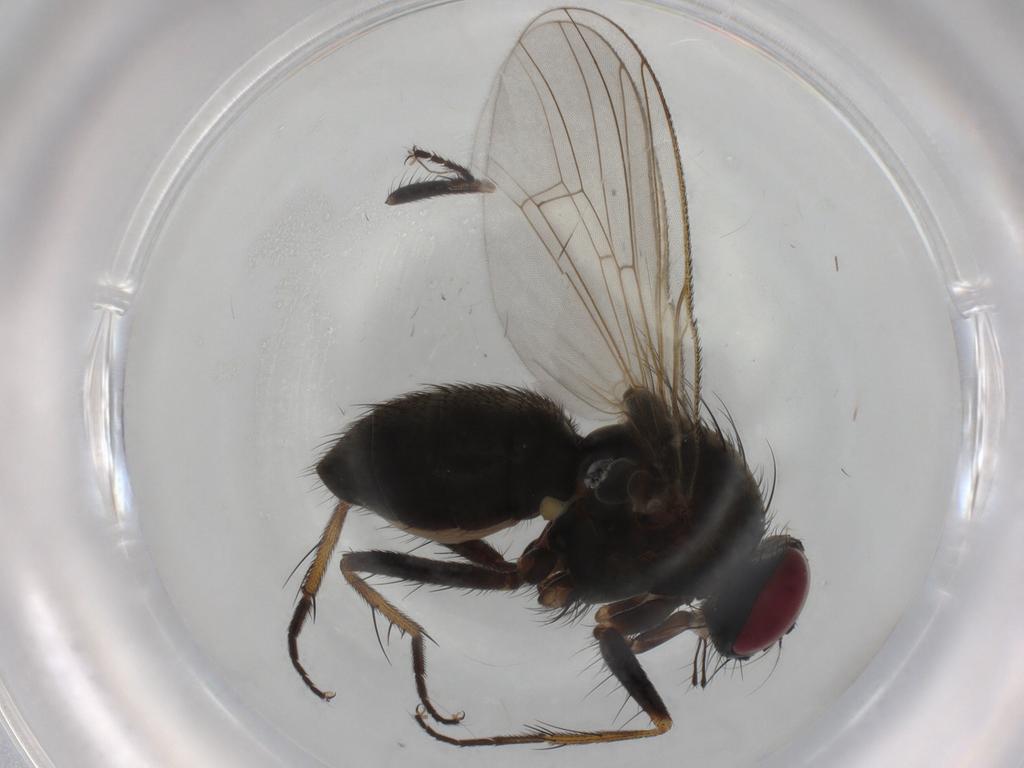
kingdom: Animalia
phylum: Arthropoda
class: Insecta
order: Diptera
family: Muscidae
